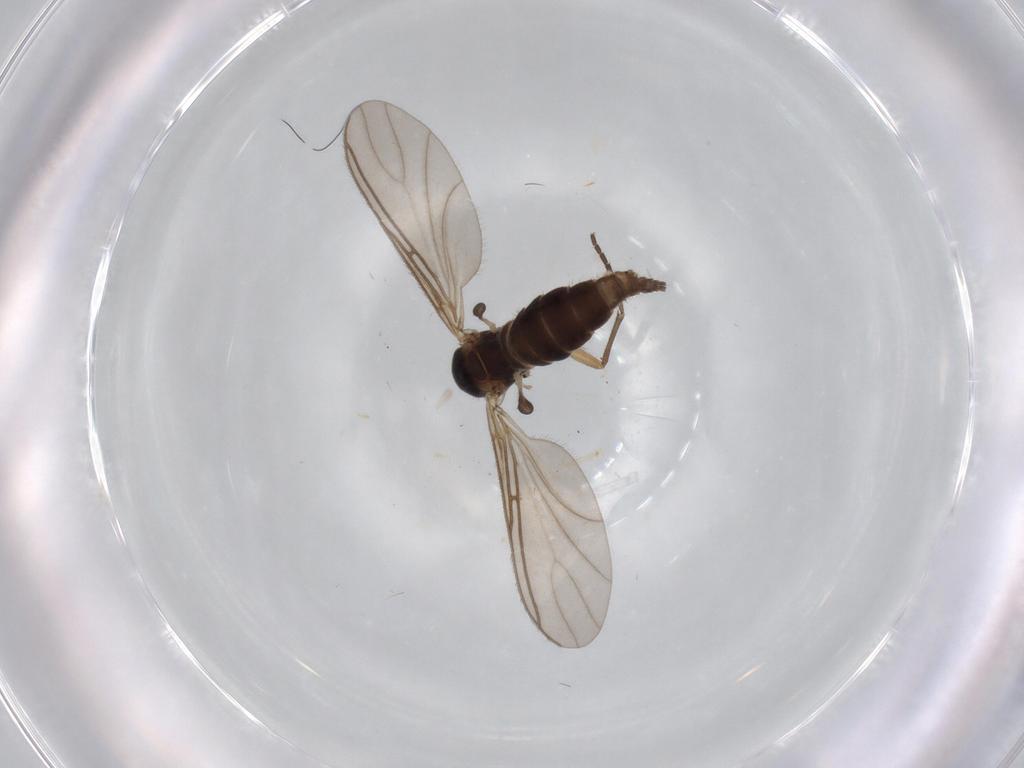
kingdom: Animalia
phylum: Arthropoda
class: Insecta
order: Diptera
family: Sciaridae
